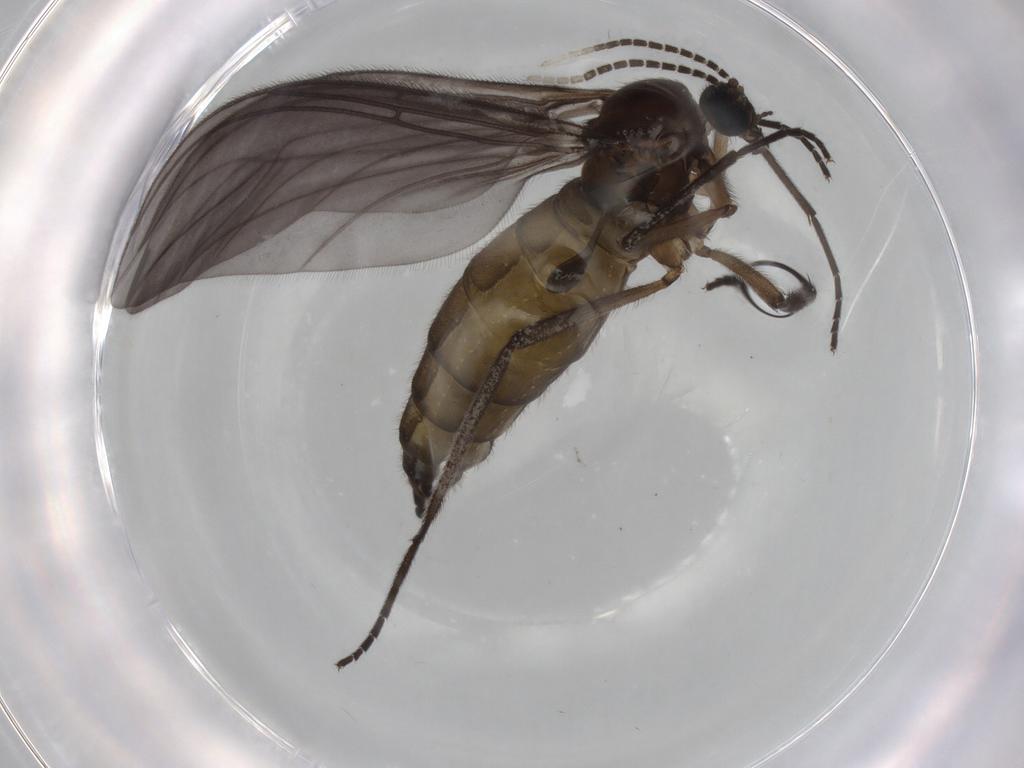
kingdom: Animalia
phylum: Arthropoda
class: Insecta
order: Diptera
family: Sciaridae
